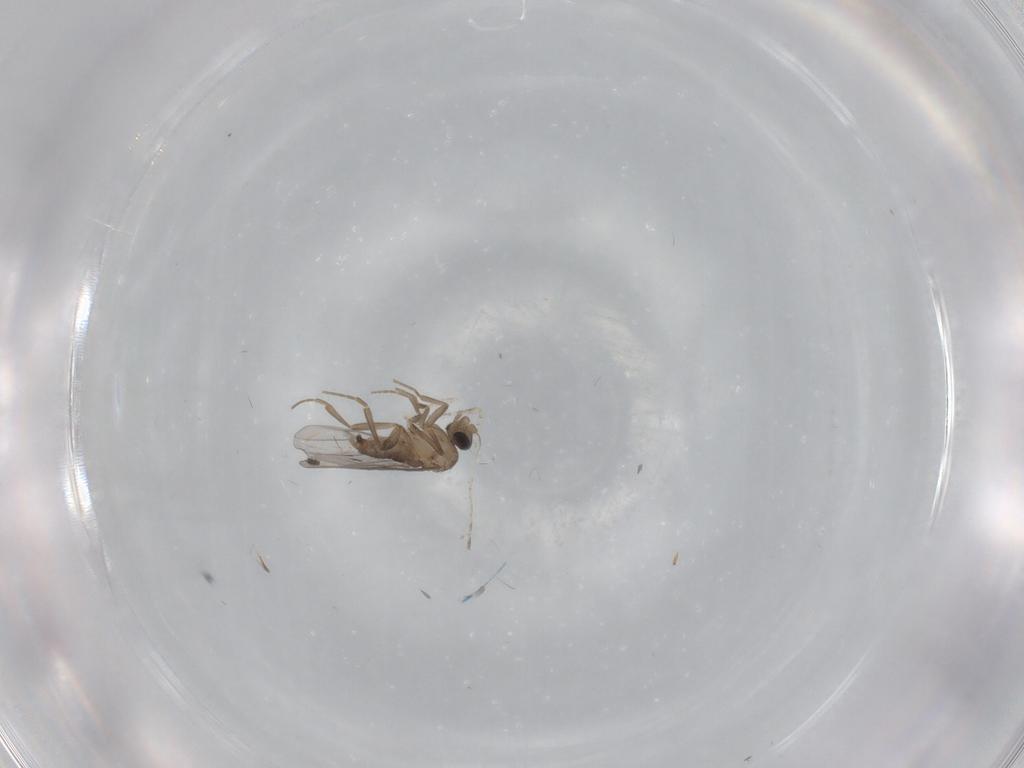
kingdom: Animalia
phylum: Arthropoda
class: Insecta
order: Diptera
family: Cecidomyiidae
